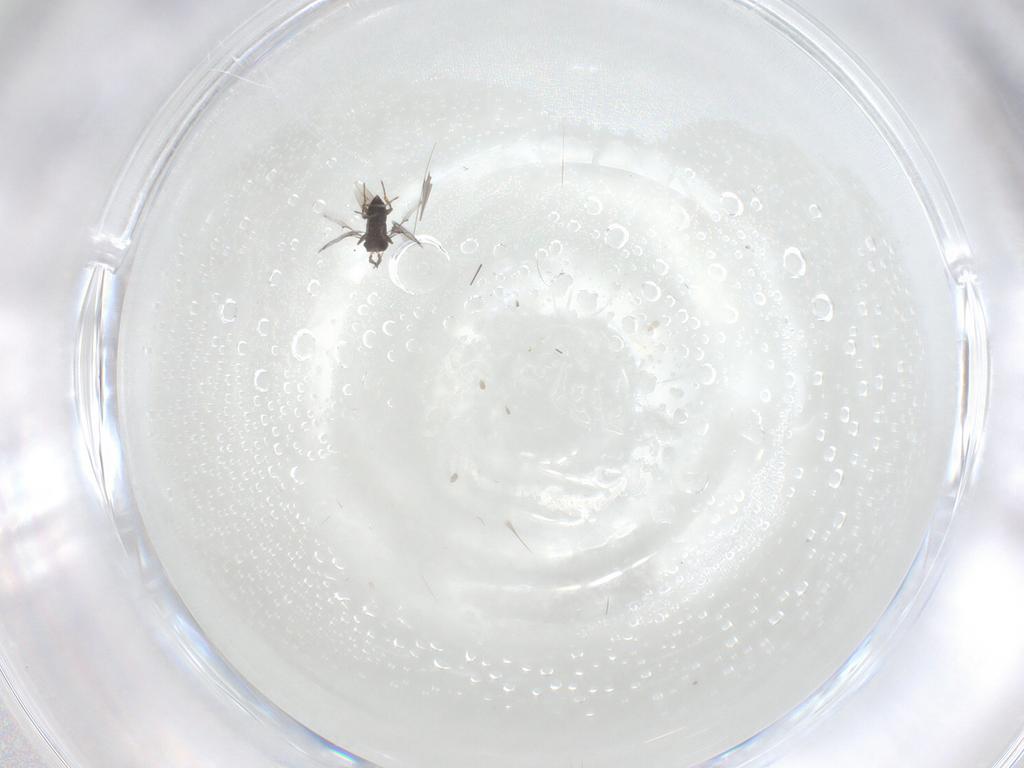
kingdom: Animalia
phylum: Arthropoda
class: Insecta
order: Hymenoptera
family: Trichogrammatidae
